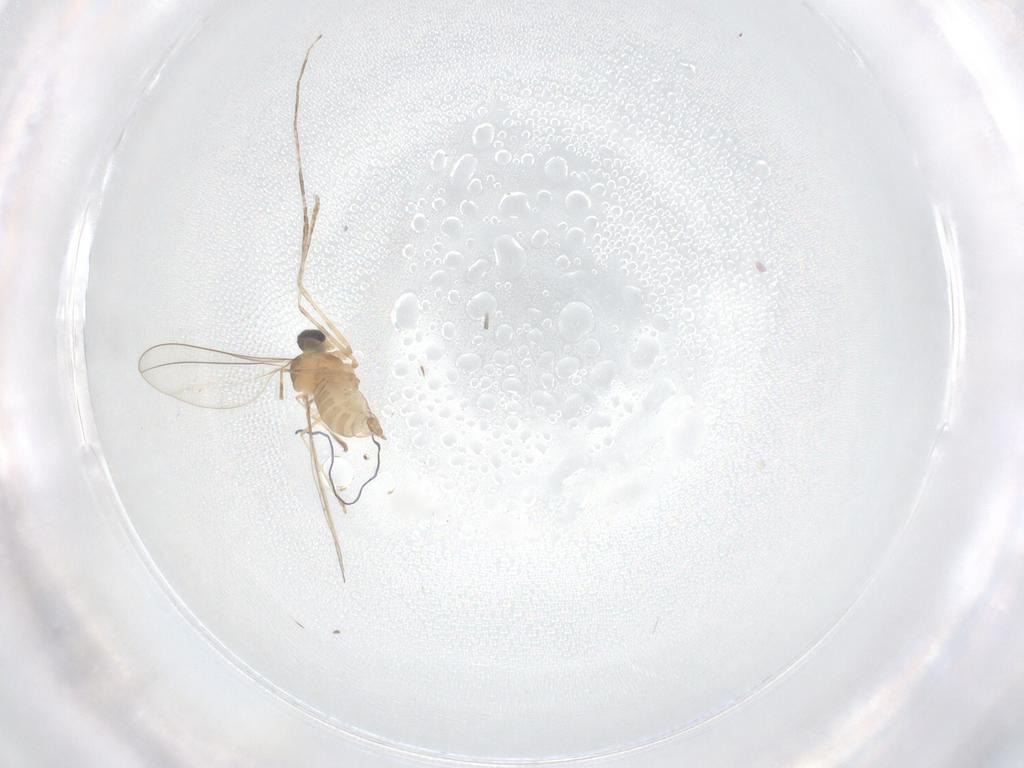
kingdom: Animalia
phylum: Arthropoda
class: Insecta
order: Diptera
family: Cecidomyiidae
